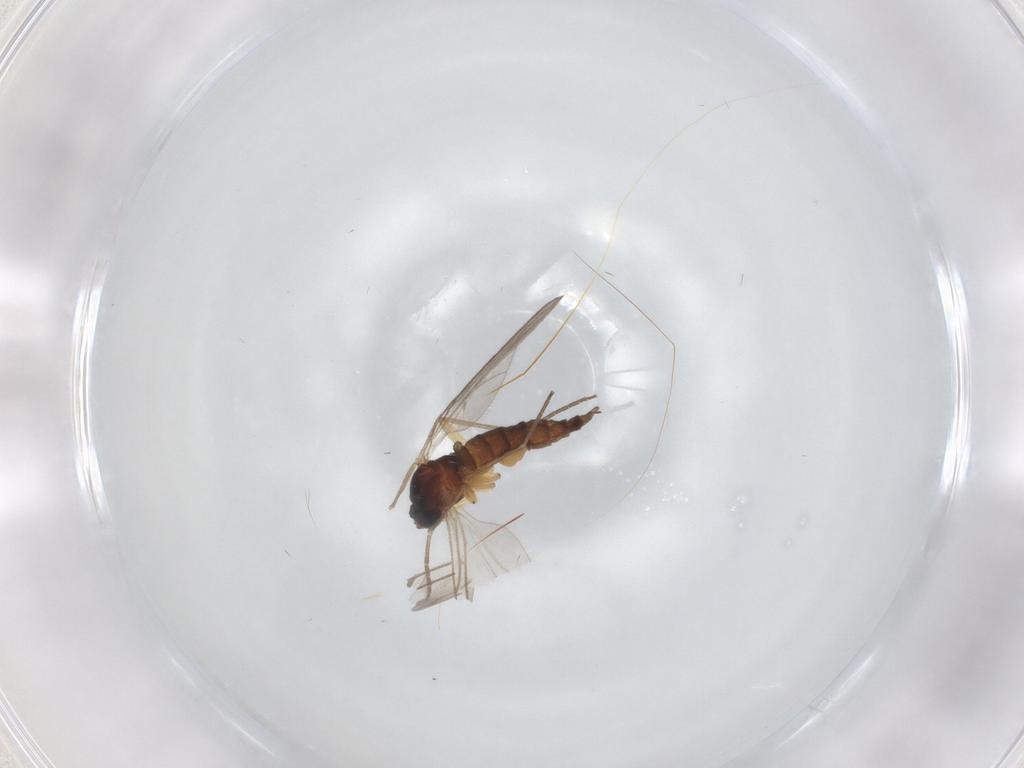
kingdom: Animalia
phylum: Arthropoda
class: Insecta
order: Diptera
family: Sciaridae
